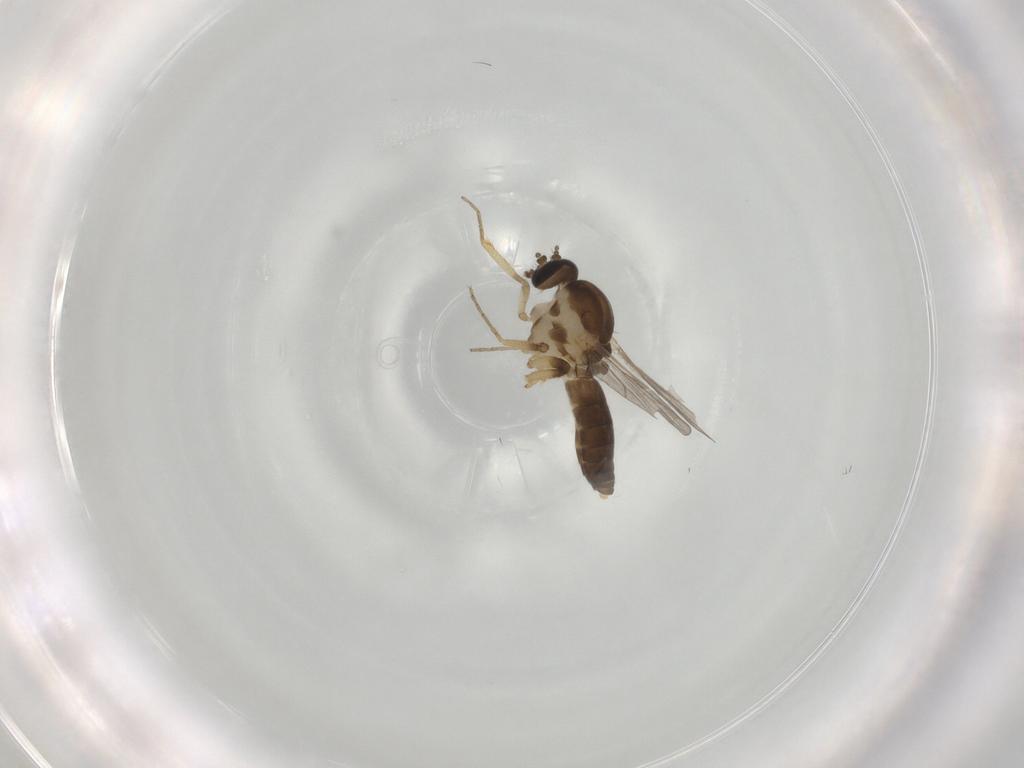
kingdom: Animalia
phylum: Arthropoda
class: Insecta
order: Diptera
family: Ceratopogonidae
